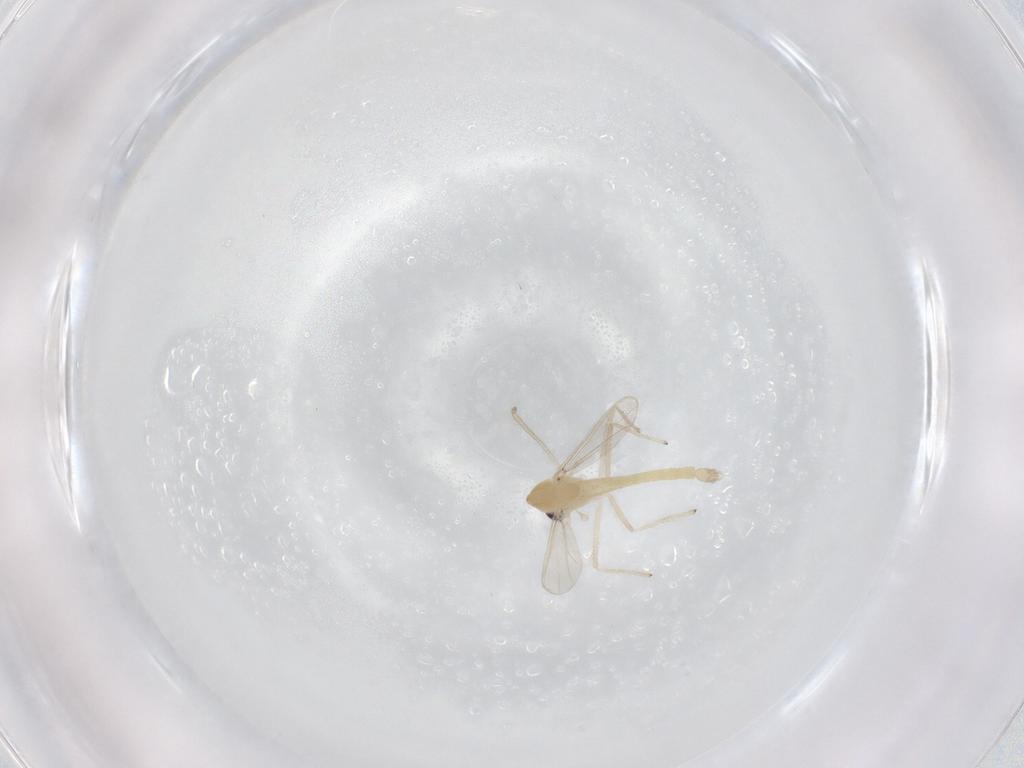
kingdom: Animalia
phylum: Arthropoda
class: Insecta
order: Diptera
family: Chironomidae
